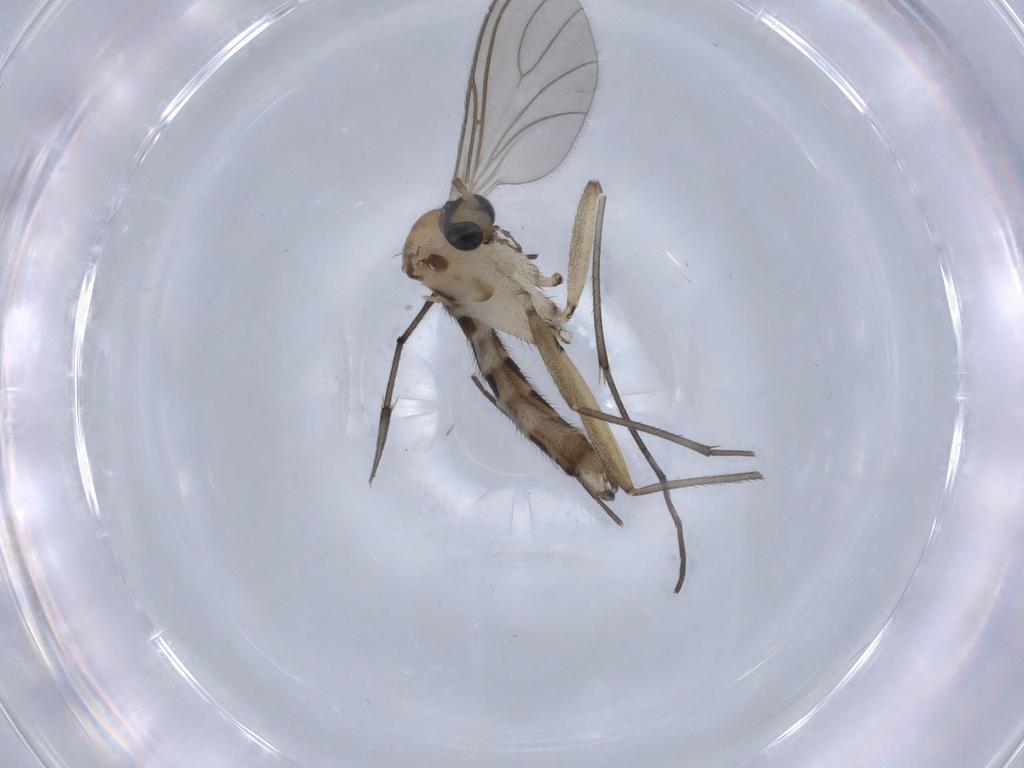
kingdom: Animalia
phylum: Arthropoda
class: Insecta
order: Diptera
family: Sciaridae
